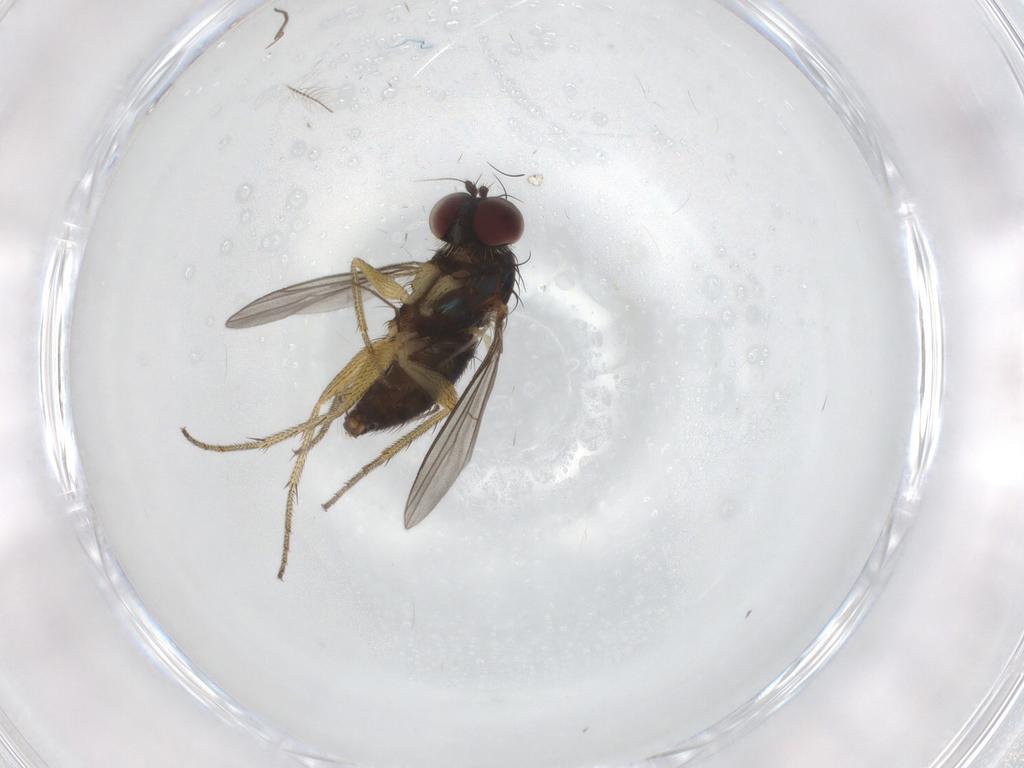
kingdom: Animalia
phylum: Arthropoda
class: Insecta
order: Diptera
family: Dolichopodidae
